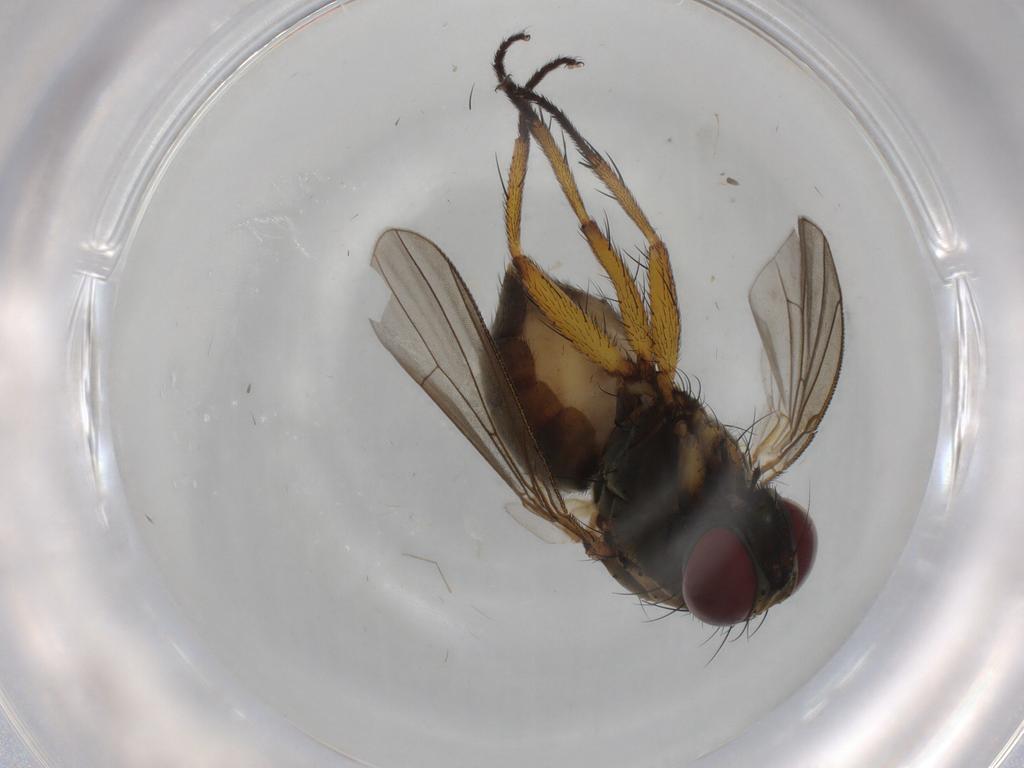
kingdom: Animalia
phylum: Arthropoda
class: Insecta
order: Diptera
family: Muscidae
